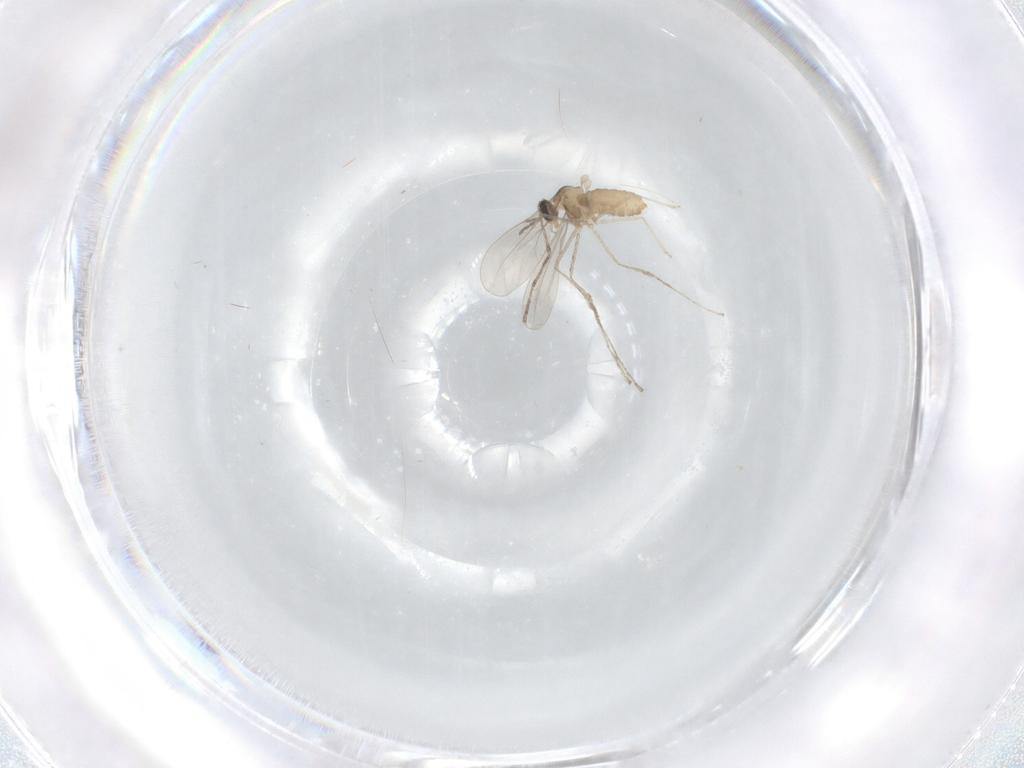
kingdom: Animalia
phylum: Arthropoda
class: Insecta
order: Diptera
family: Cecidomyiidae
